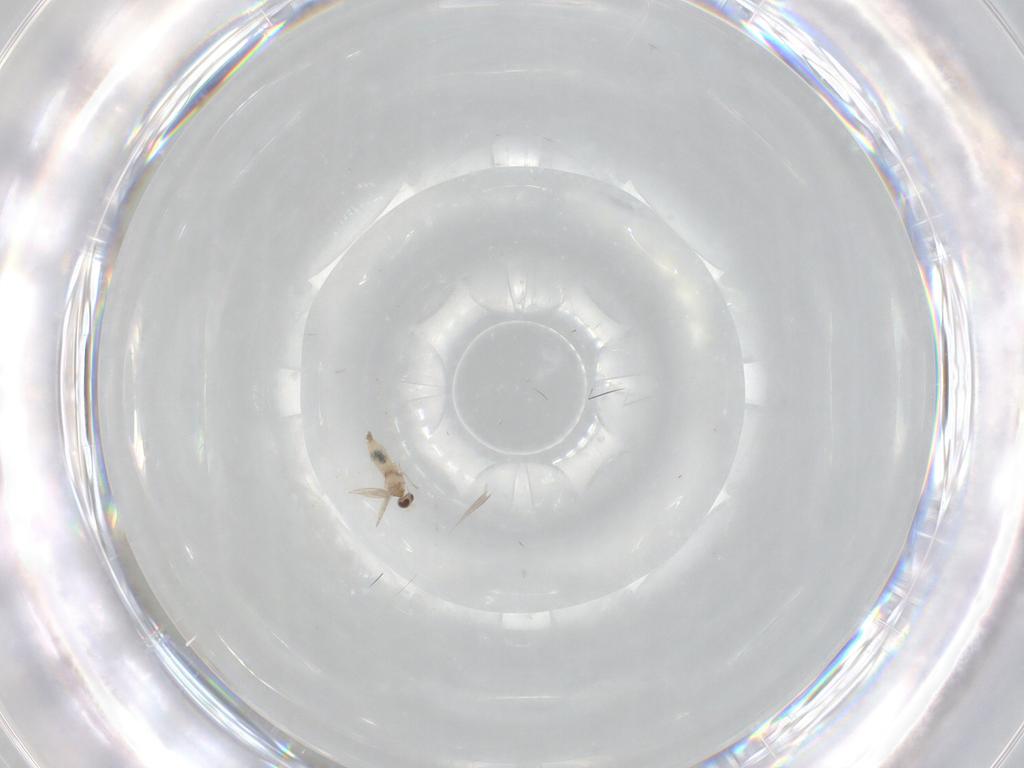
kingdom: Animalia
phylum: Arthropoda
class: Insecta
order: Diptera
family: Cecidomyiidae
